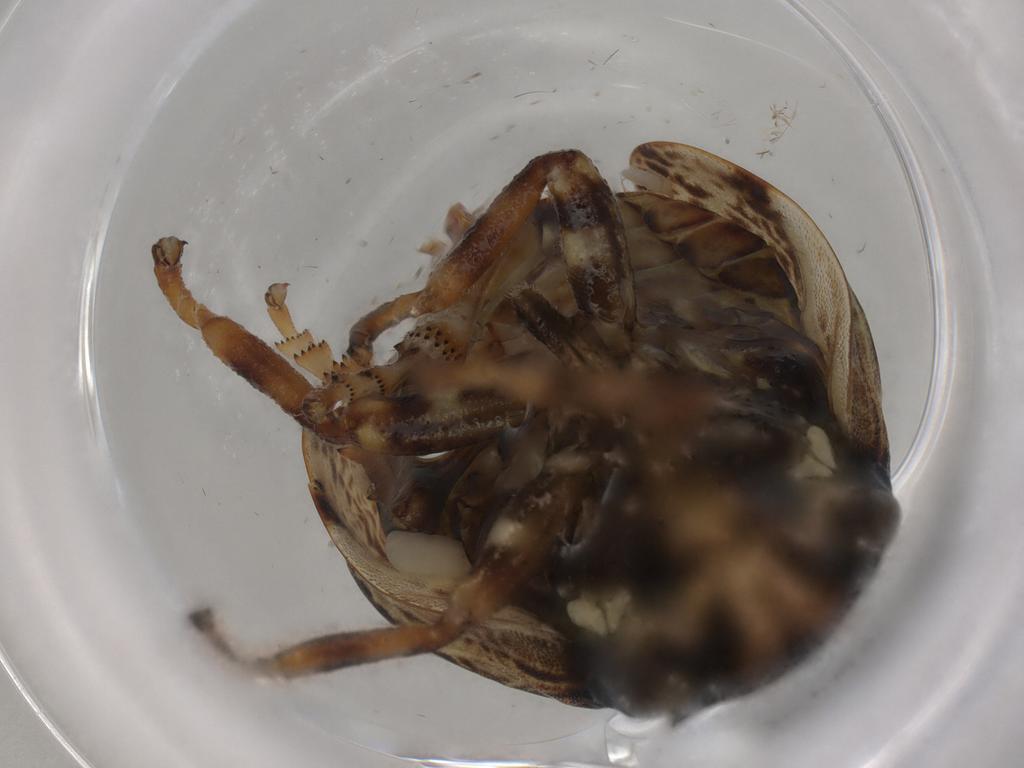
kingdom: Animalia
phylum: Arthropoda
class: Insecta
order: Hemiptera
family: Aphrophoridae
